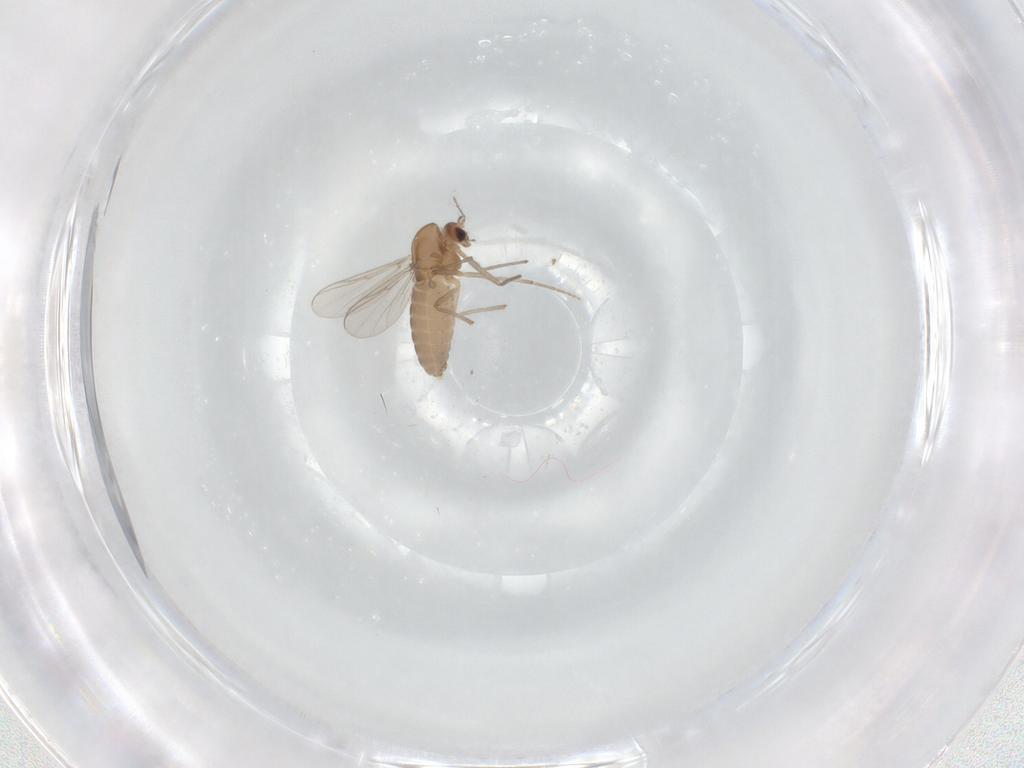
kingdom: Animalia
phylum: Arthropoda
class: Insecta
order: Diptera
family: Chironomidae
